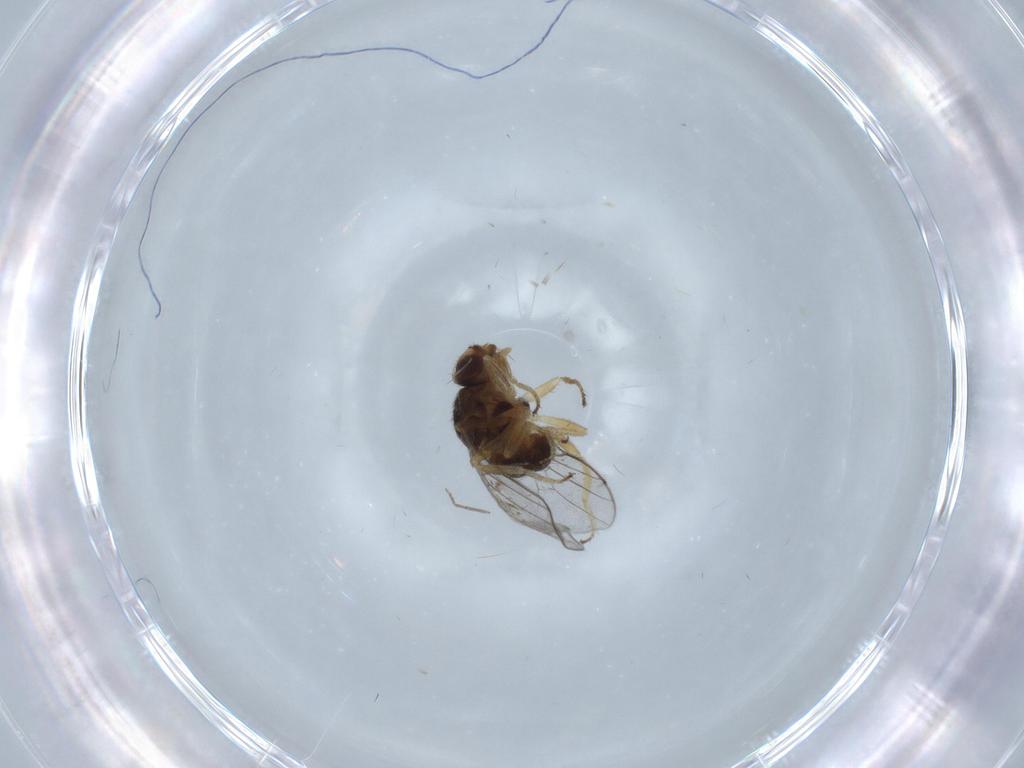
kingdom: Animalia
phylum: Arthropoda
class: Insecta
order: Diptera
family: Chloropidae
